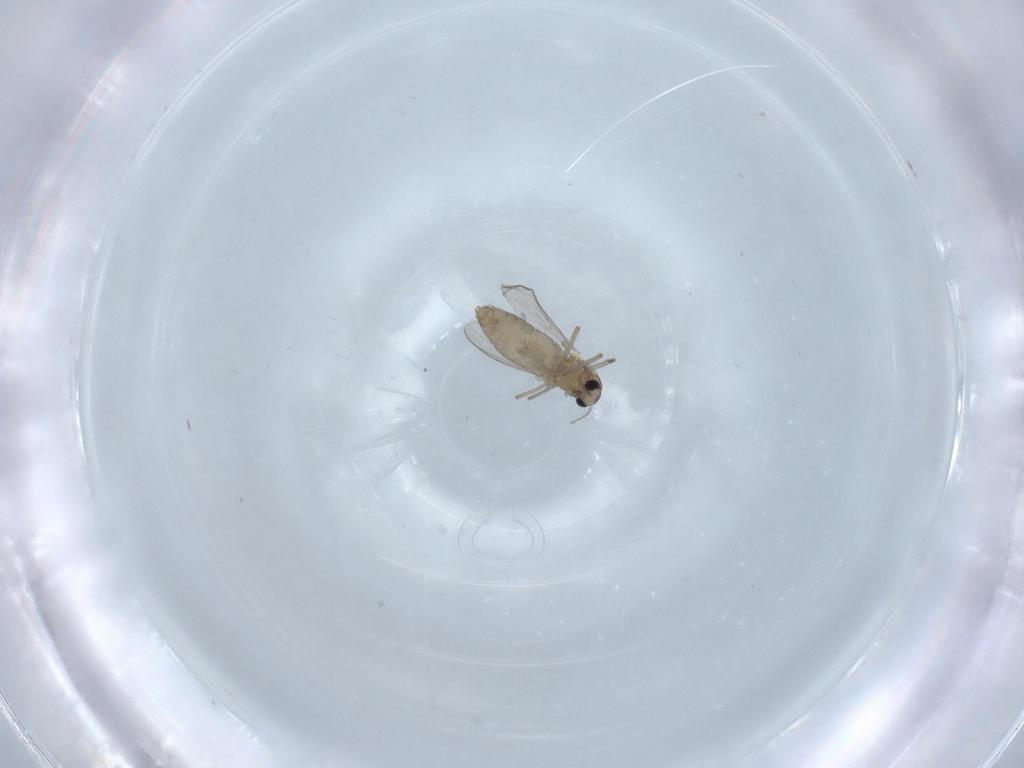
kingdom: Animalia
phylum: Arthropoda
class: Insecta
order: Diptera
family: Chironomidae
